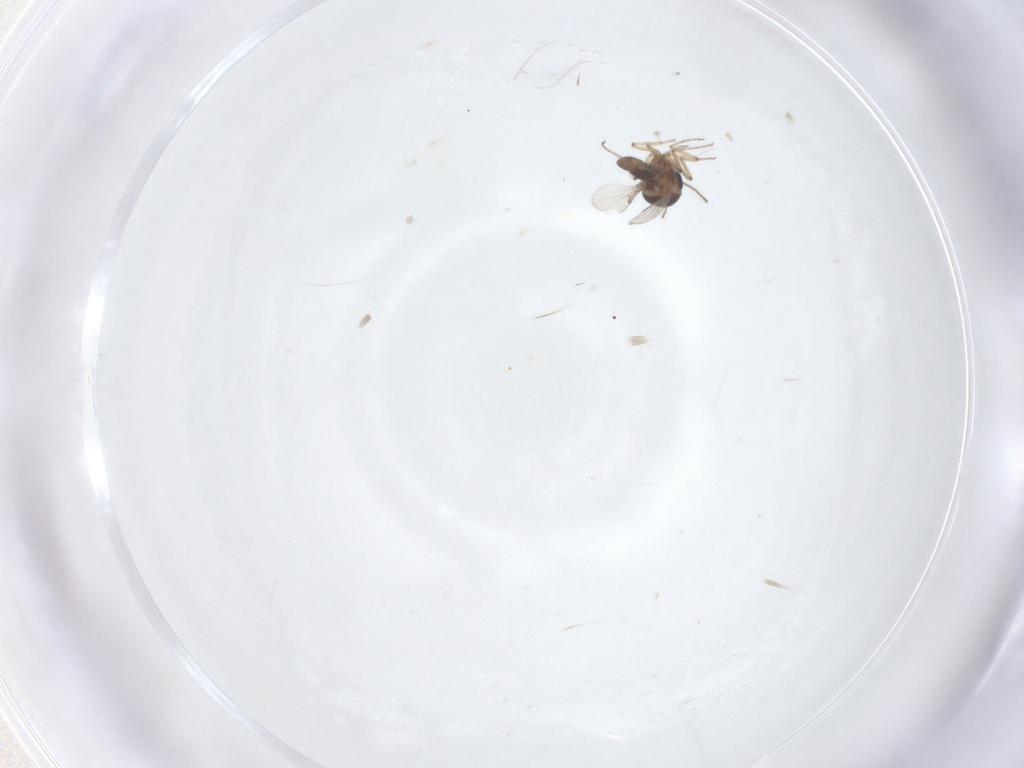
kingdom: Animalia
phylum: Arthropoda
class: Insecta
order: Diptera
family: Ceratopogonidae
